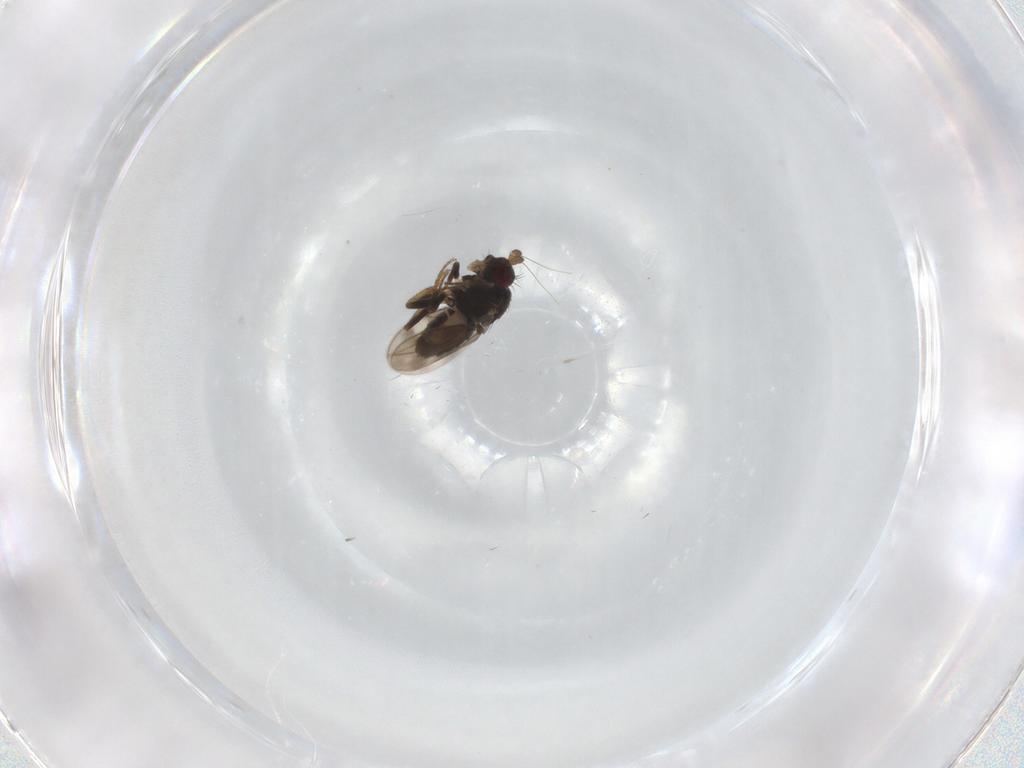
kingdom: Animalia
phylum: Arthropoda
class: Insecta
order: Diptera
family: Sphaeroceridae
